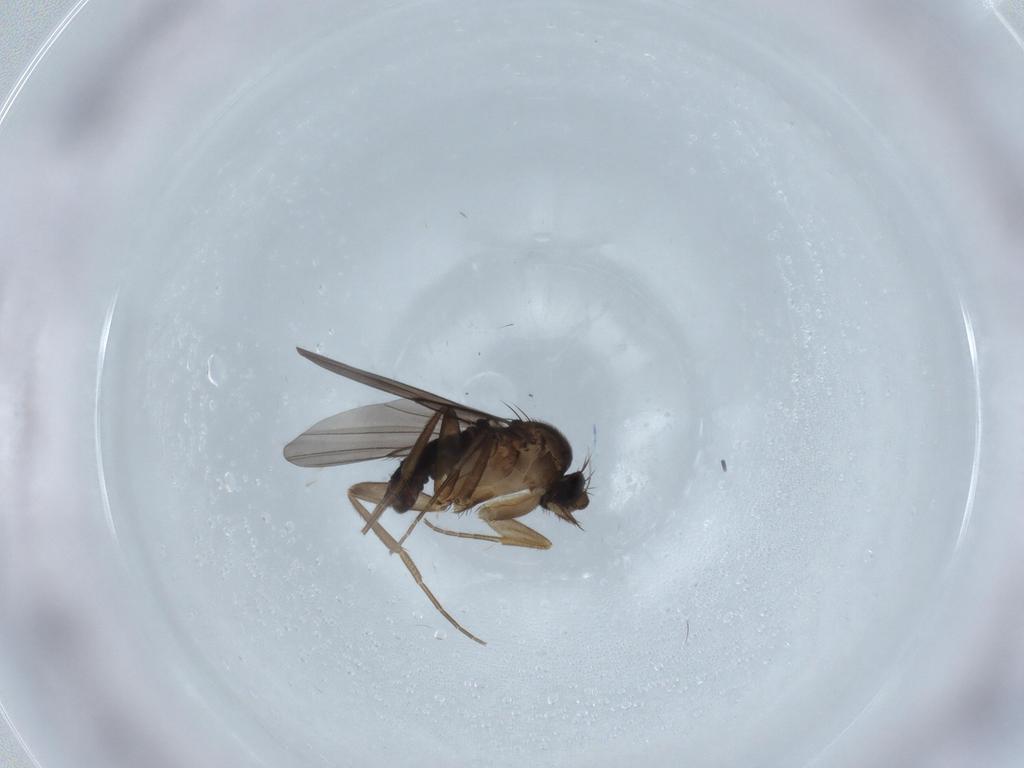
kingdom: Animalia
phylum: Arthropoda
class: Insecta
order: Diptera
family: Phoridae
